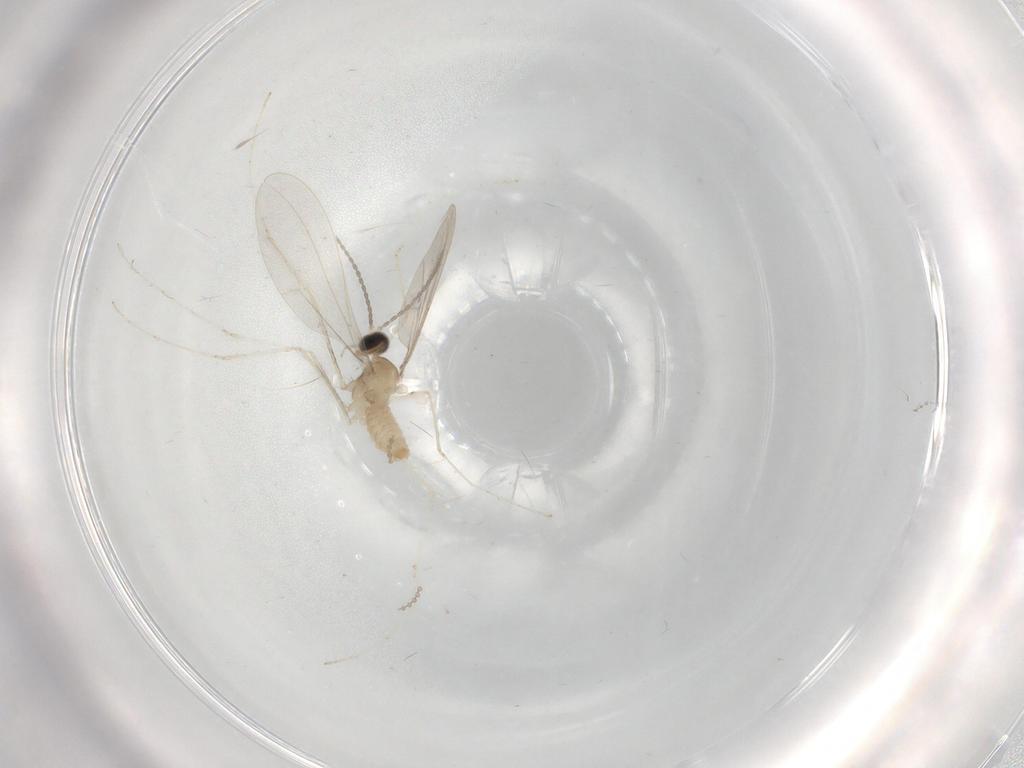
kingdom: Animalia
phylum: Arthropoda
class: Insecta
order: Diptera
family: Cecidomyiidae
